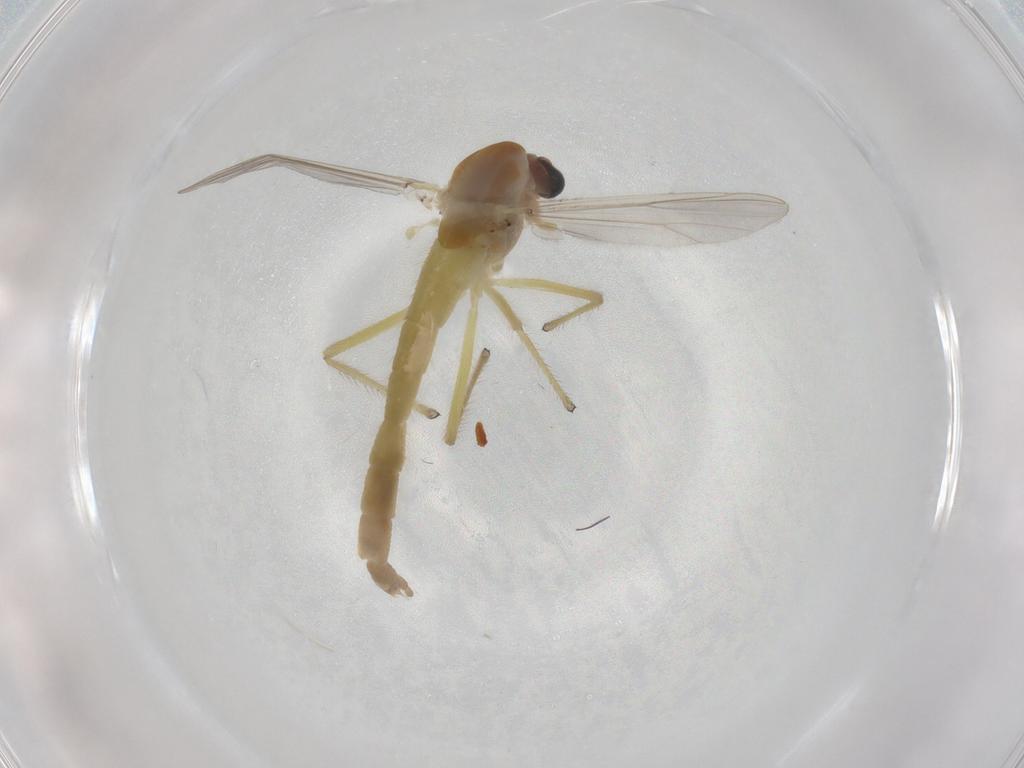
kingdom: Animalia
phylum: Arthropoda
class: Insecta
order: Diptera
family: Chironomidae
